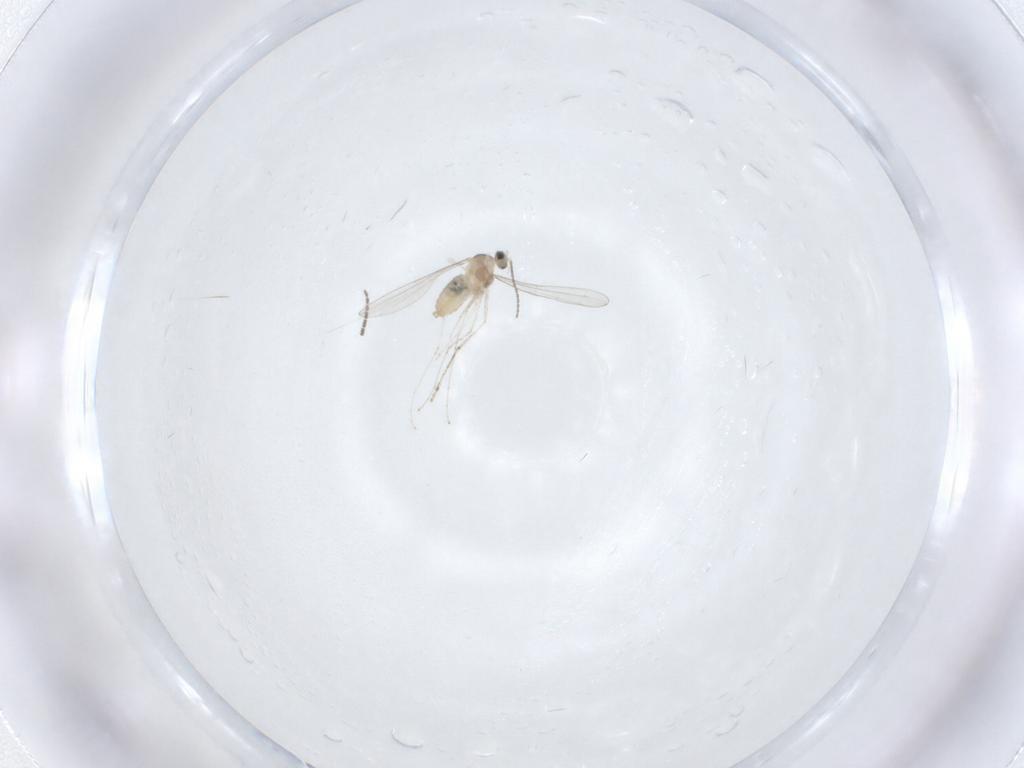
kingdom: Animalia
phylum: Arthropoda
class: Insecta
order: Diptera
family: Cecidomyiidae
